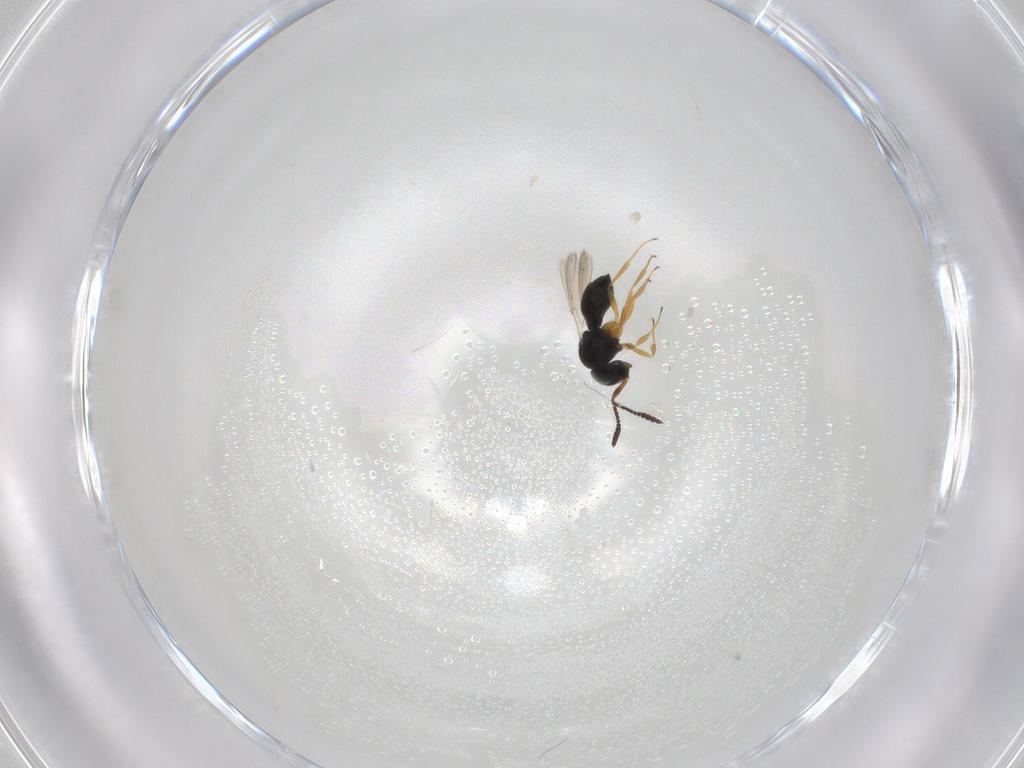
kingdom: Animalia
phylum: Arthropoda
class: Insecta
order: Hymenoptera
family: Scelionidae
